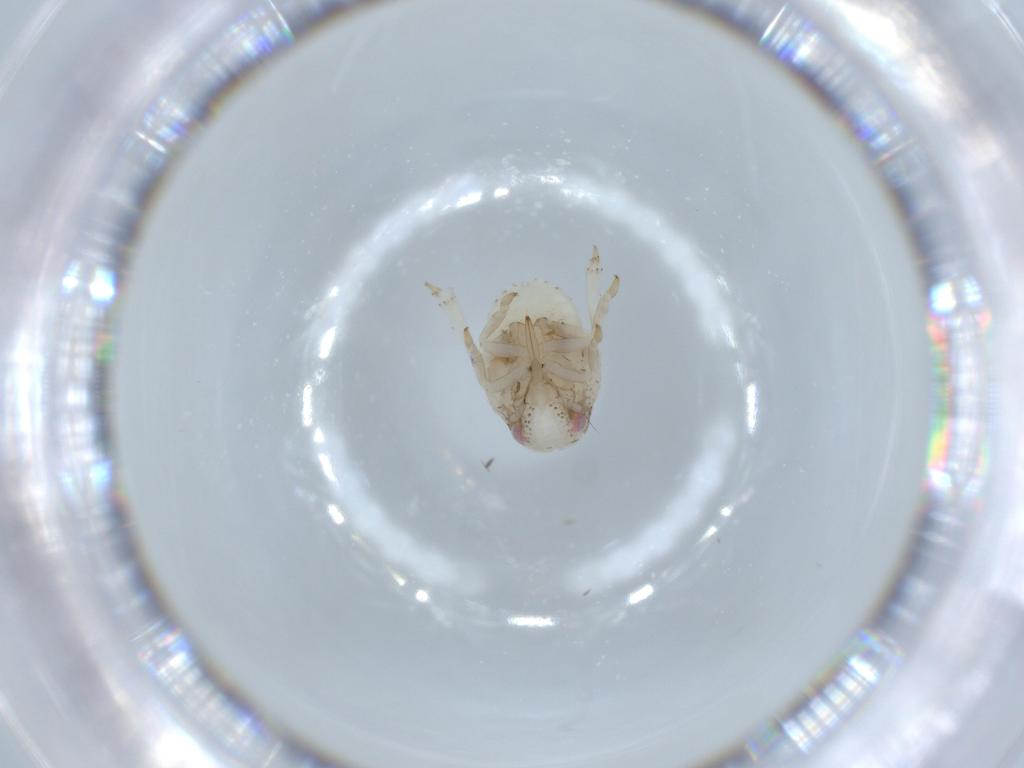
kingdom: Animalia
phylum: Arthropoda
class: Insecta
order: Hemiptera
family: Acanaloniidae
